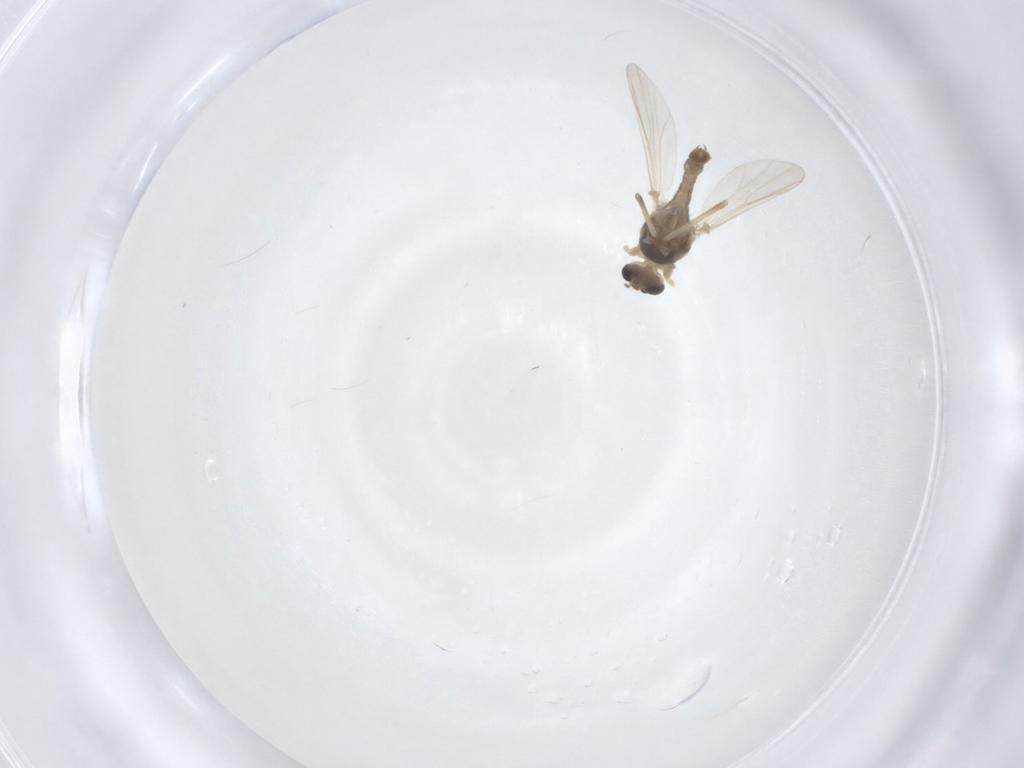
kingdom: Animalia
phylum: Arthropoda
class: Insecta
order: Diptera
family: Chironomidae
